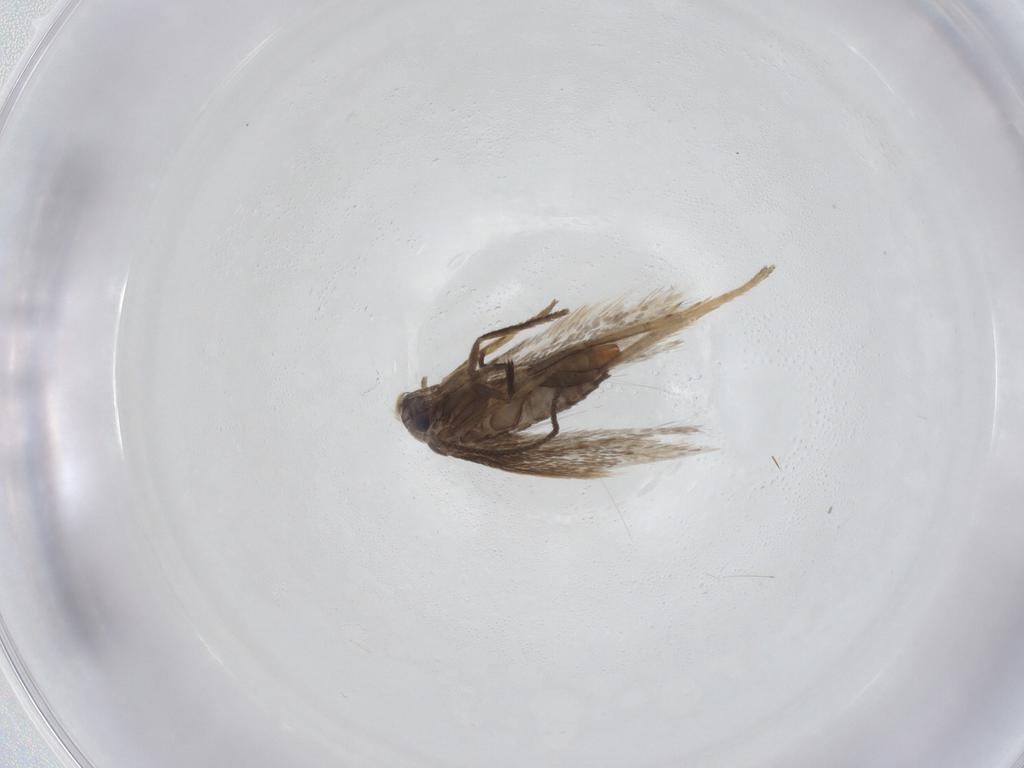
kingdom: Animalia
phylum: Arthropoda
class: Insecta
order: Lepidoptera
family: Nepticulidae
